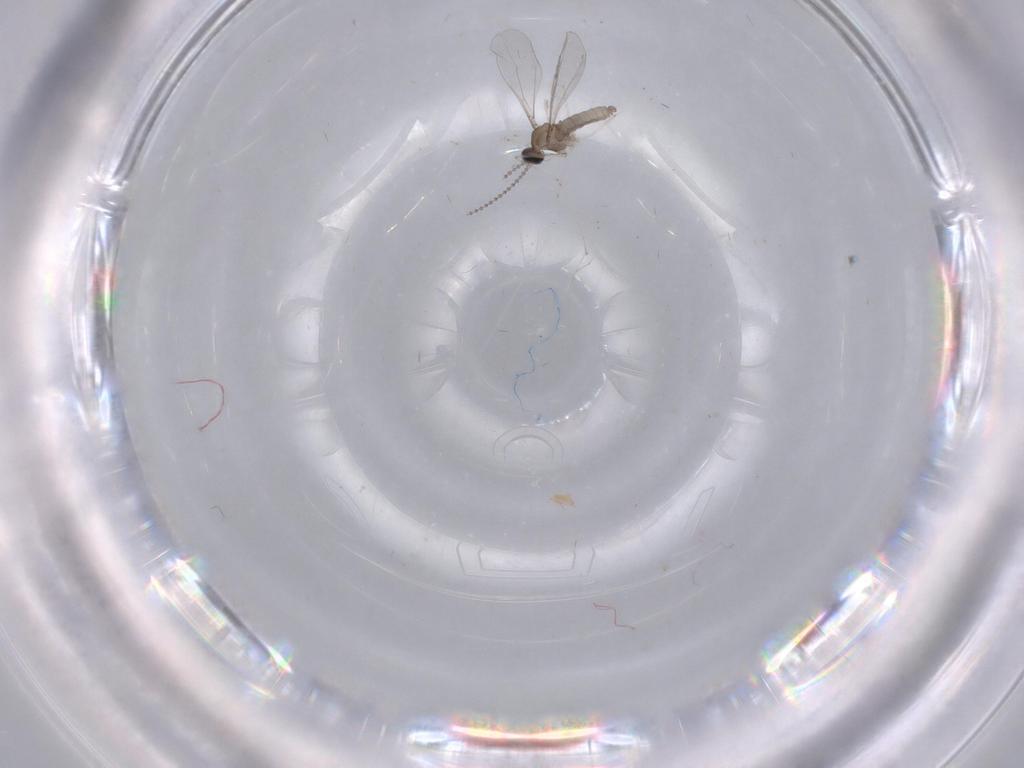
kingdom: Animalia
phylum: Arthropoda
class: Insecta
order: Diptera
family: Cecidomyiidae
